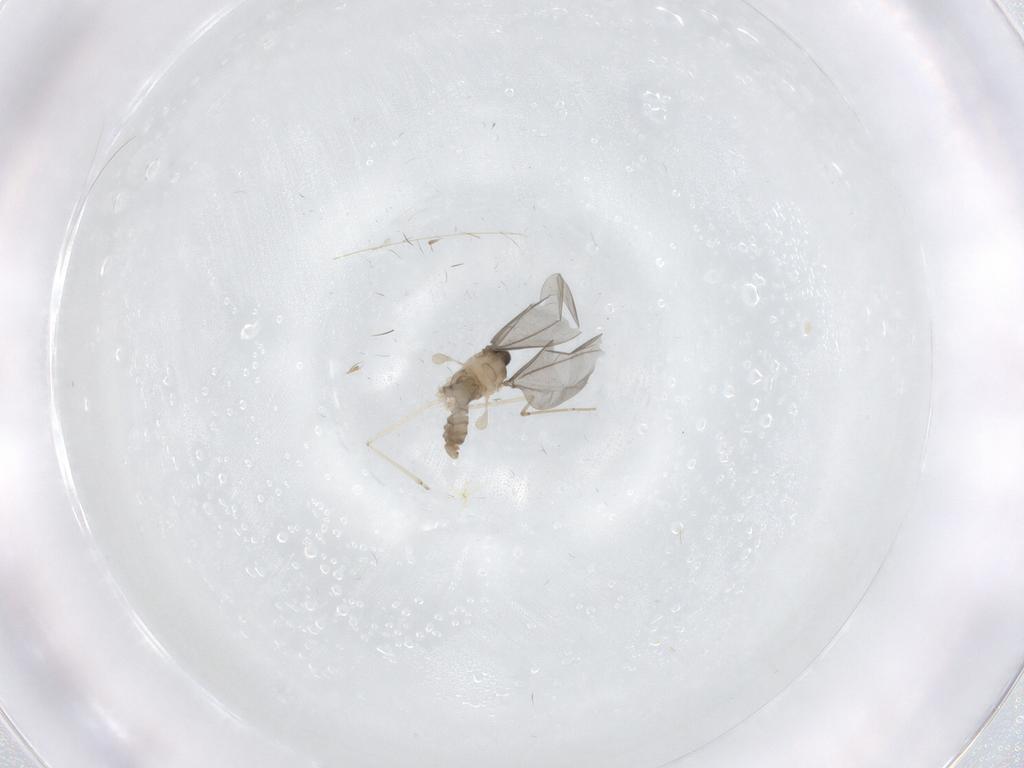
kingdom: Animalia
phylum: Arthropoda
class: Insecta
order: Diptera
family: Cecidomyiidae
